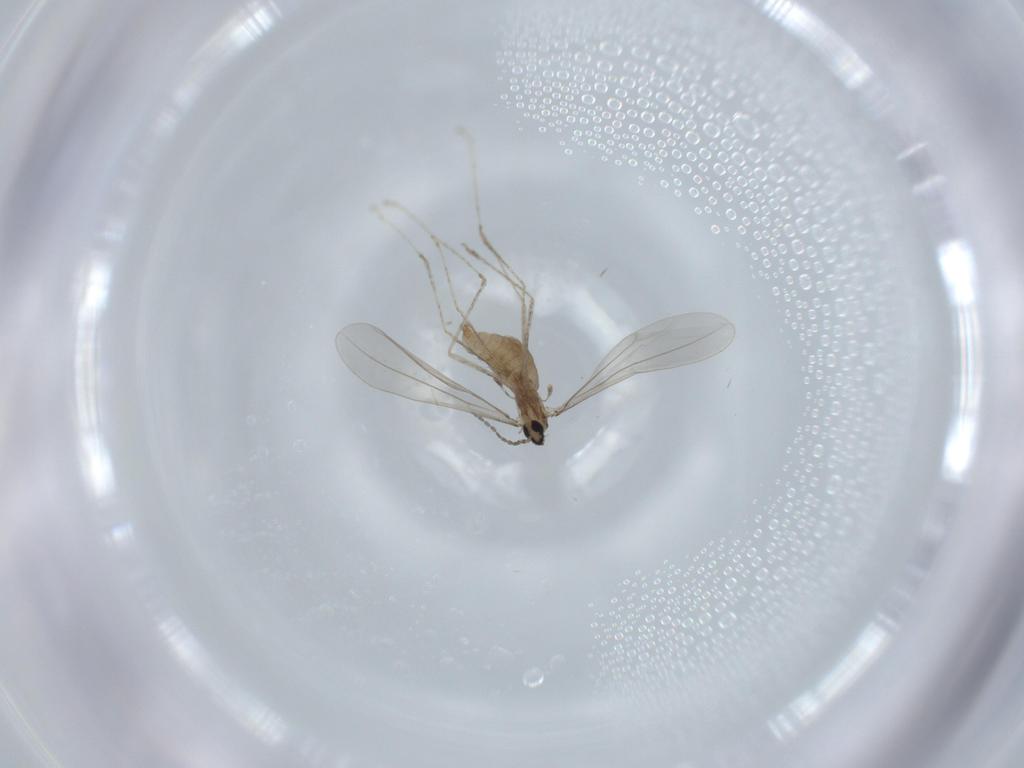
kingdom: Animalia
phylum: Arthropoda
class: Insecta
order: Diptera
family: Cecidomyiidae
